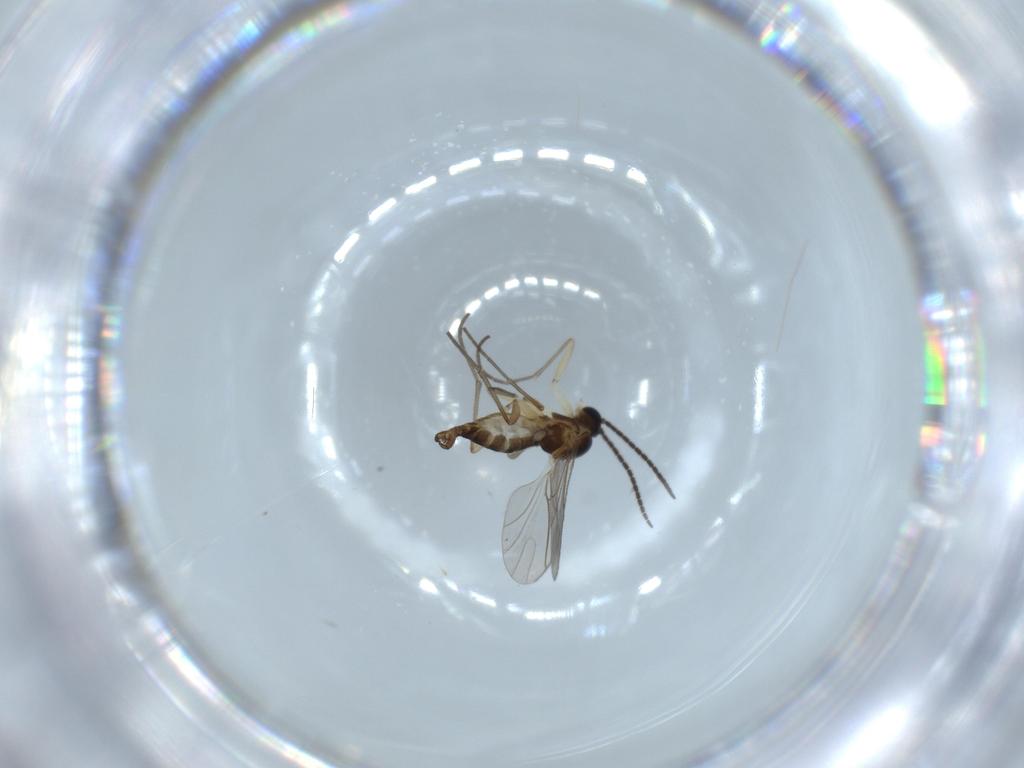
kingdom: Animalia
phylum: Arthropoda
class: Insecta
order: Diptera
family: Sciaridae
